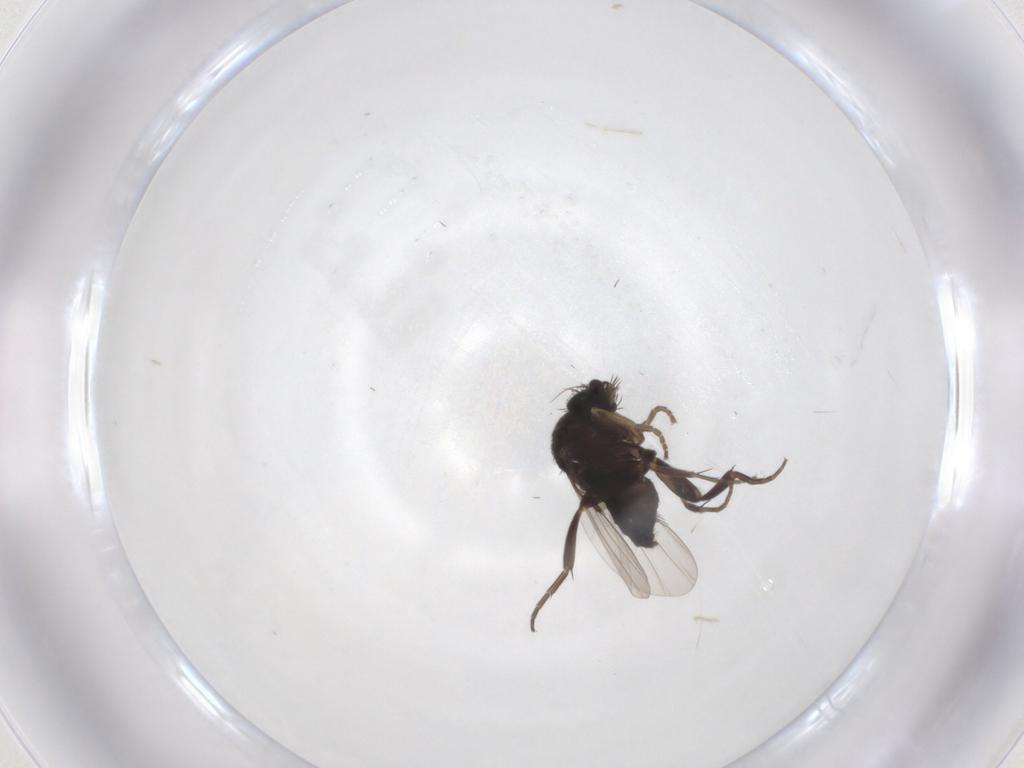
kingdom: Animalia
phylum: Arthropoda
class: Insecta
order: Diptera
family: Phoridae
